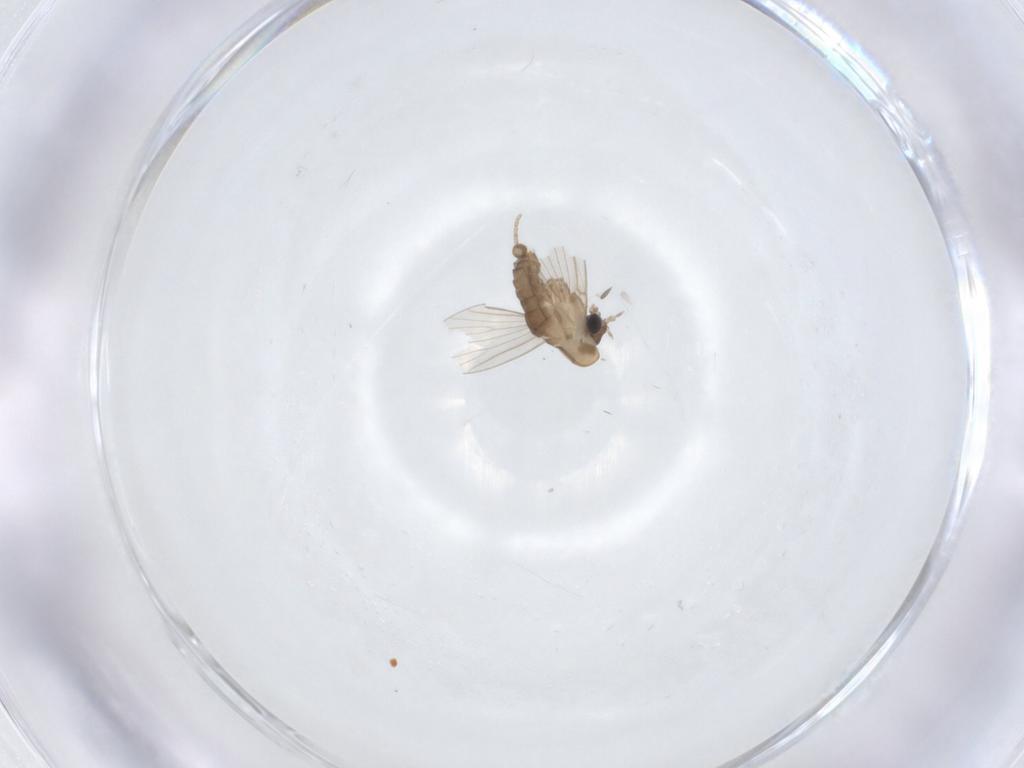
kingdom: Animalia
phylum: Arthropoda
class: Insecta
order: Diptera
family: Psychodidae
